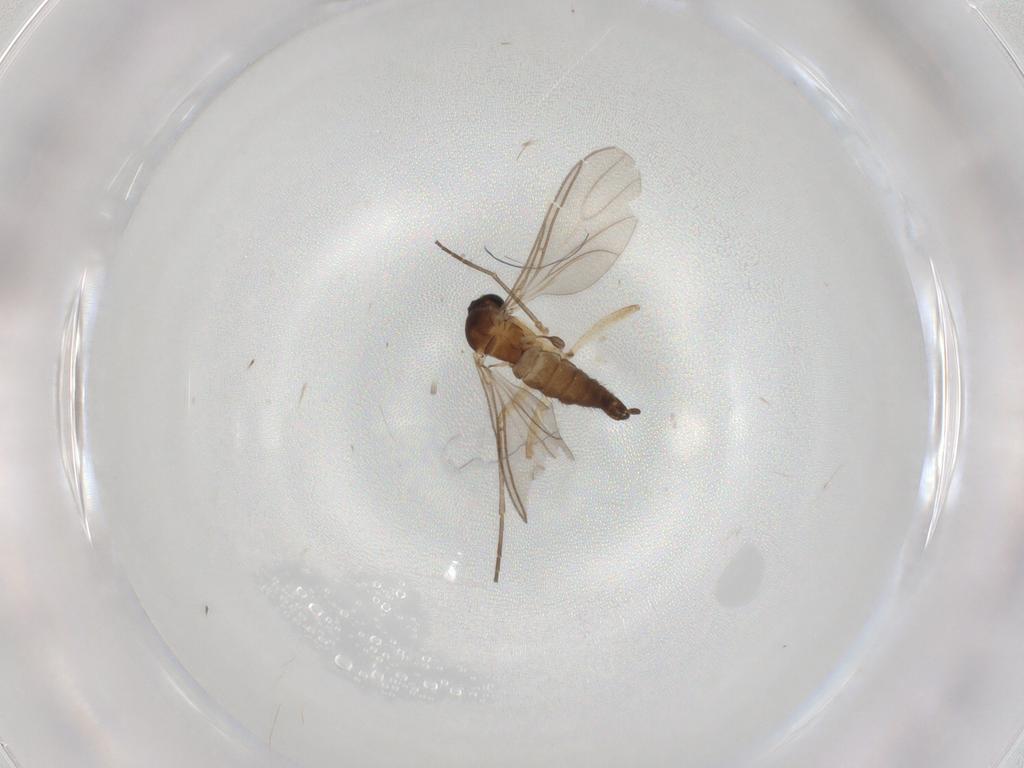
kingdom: Animalia
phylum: Arthropoda
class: Insecta
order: Diptera
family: Sciaridae
